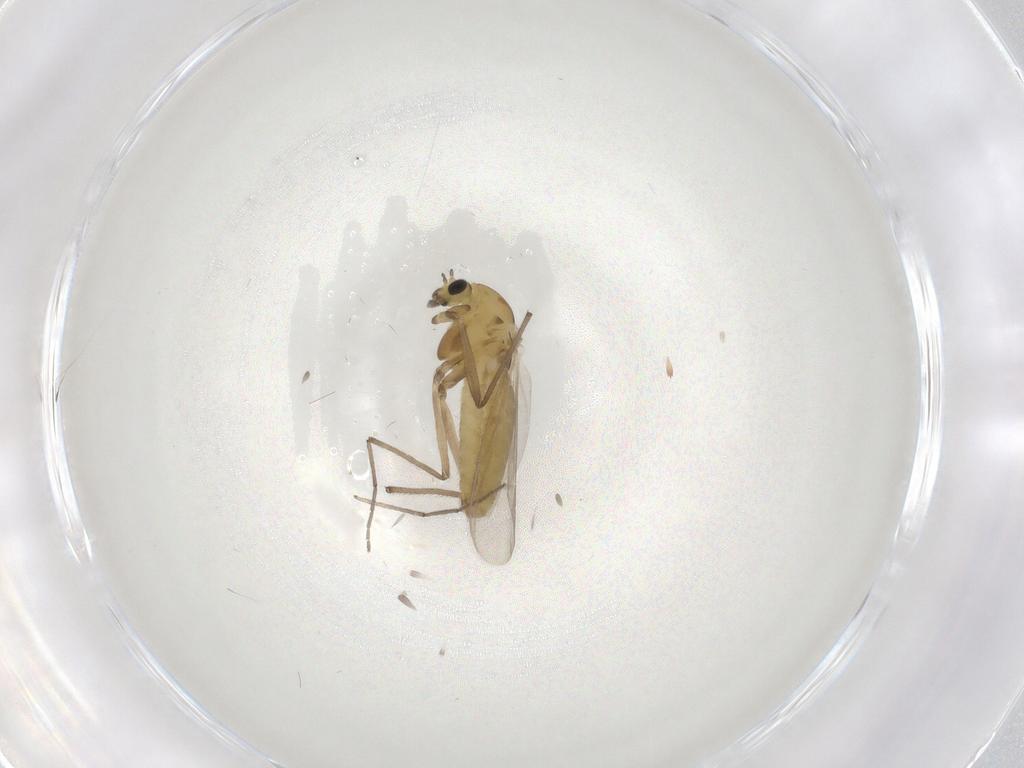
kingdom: Animalia
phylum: Arthropoda
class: Insecta
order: Diptera
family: Chironomidae
